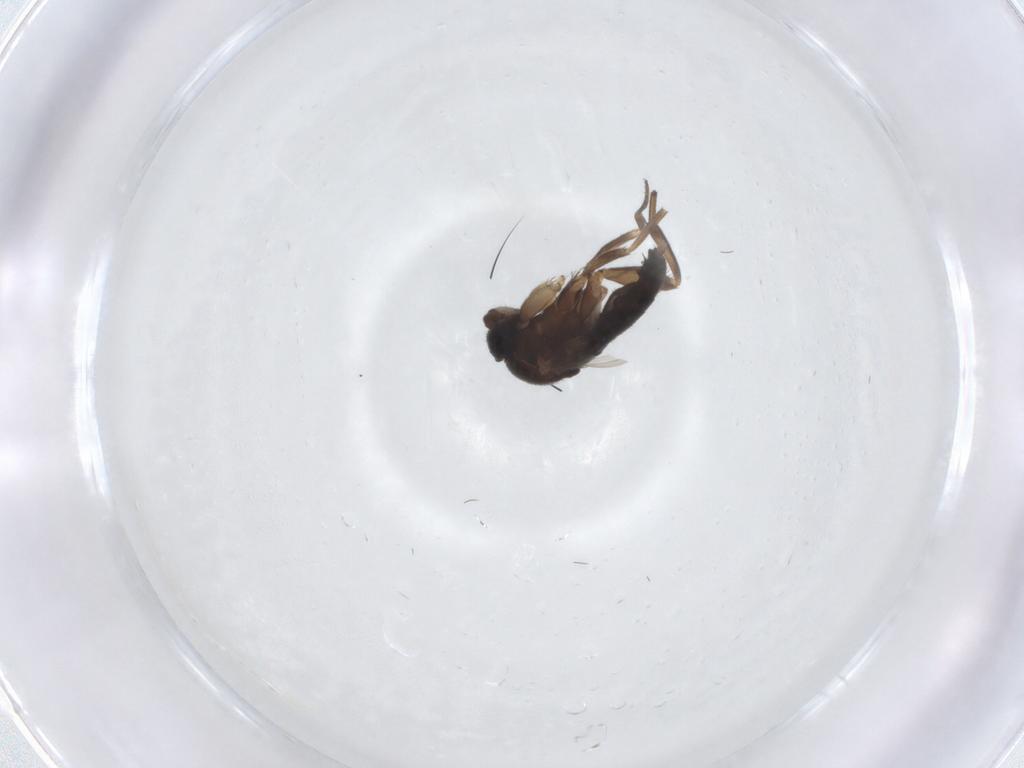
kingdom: Animalia
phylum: Arthropoda
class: Insecta
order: Diptera
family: Phoridae
